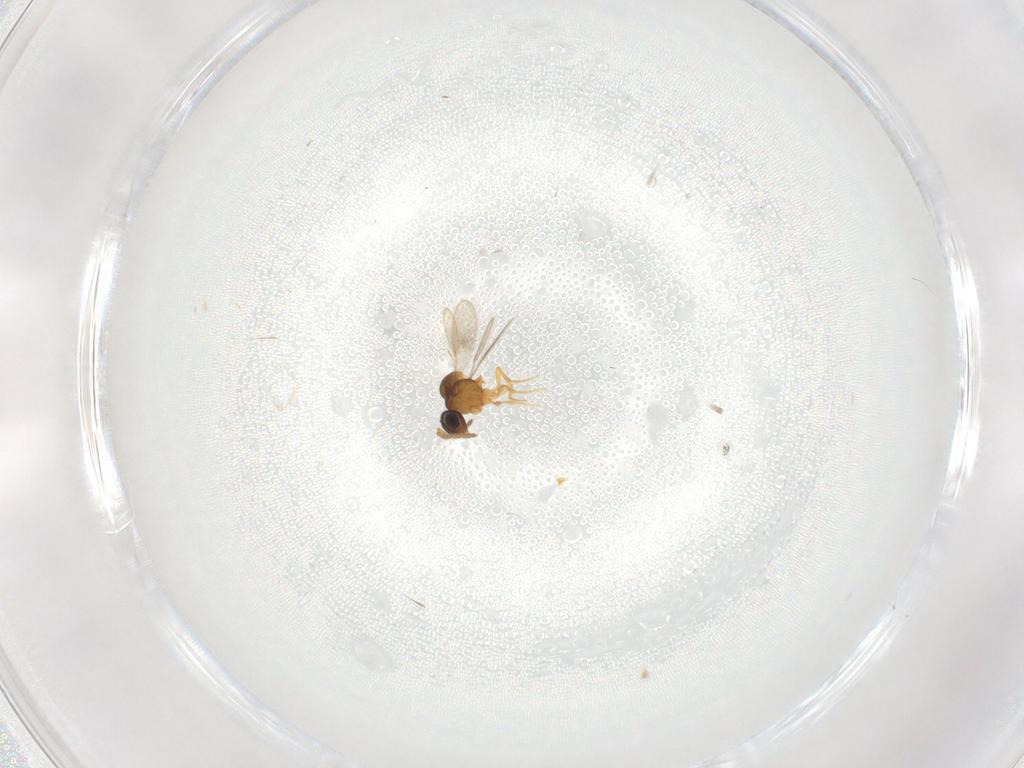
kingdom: Animalia
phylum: Arthropoda
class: Insecta
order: Hymenoptera
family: Scelionidae
